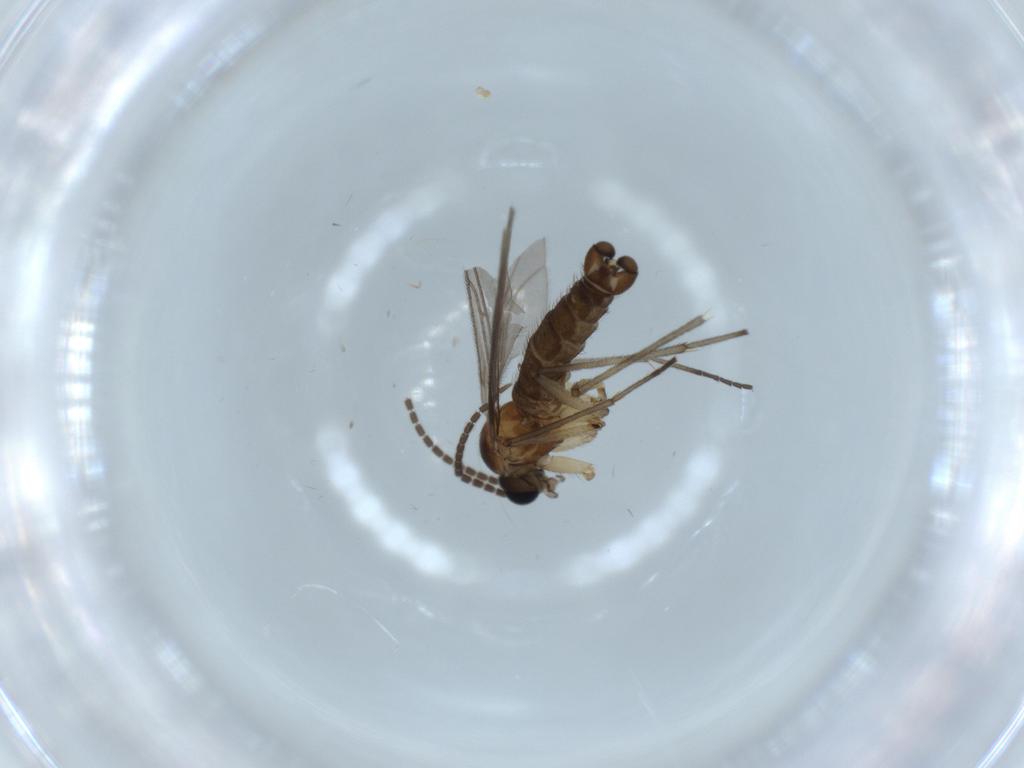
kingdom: Animalia
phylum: Arthropoda
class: Insecta
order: Diptera
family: Sciaridae
